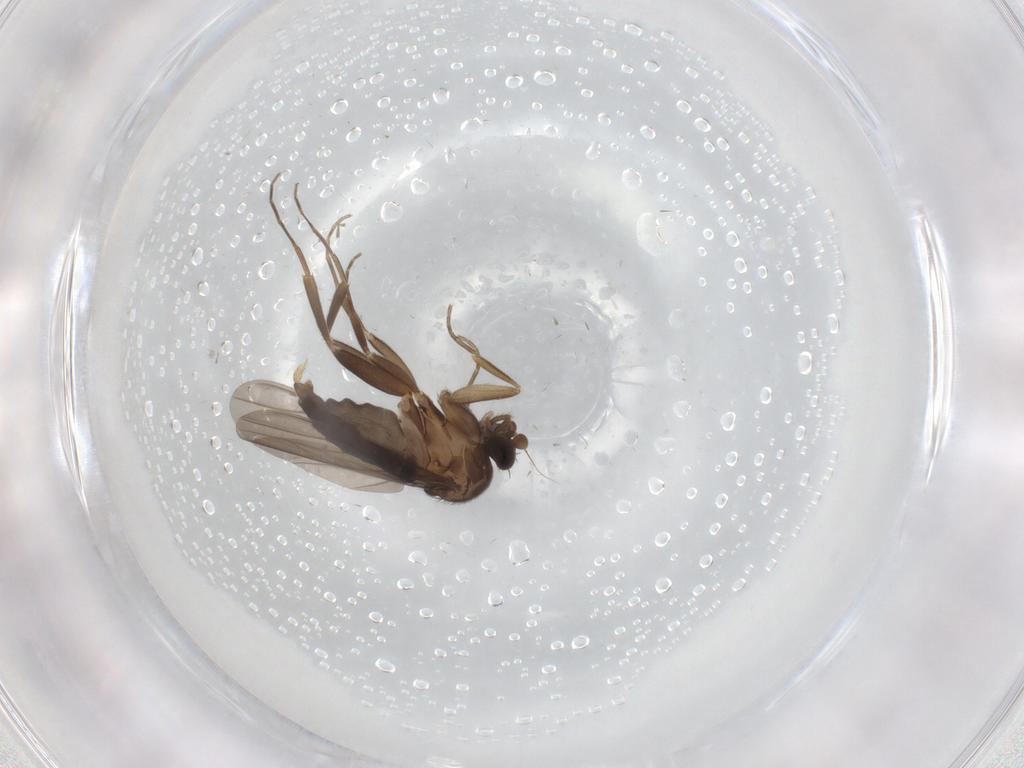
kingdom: Animalia
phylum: Arthropoda
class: Insecta
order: Diptera
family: Phoridae
